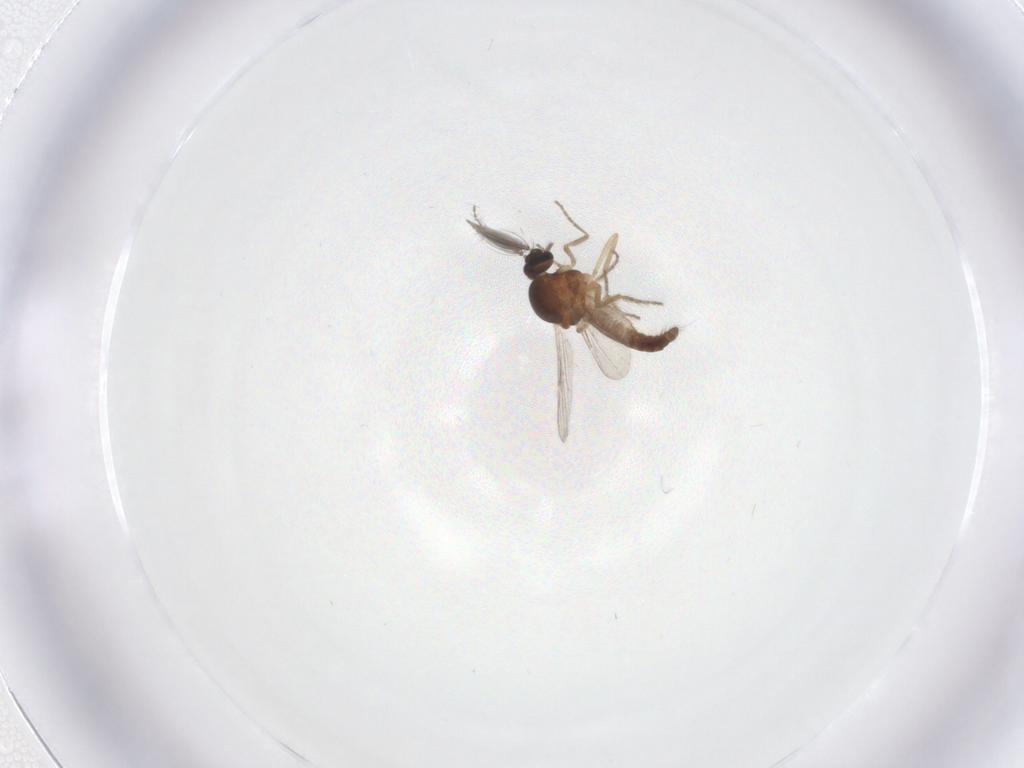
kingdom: Animalia
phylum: Arthropoda
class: Insecta
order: Diptera
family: Ceratopogonidae
